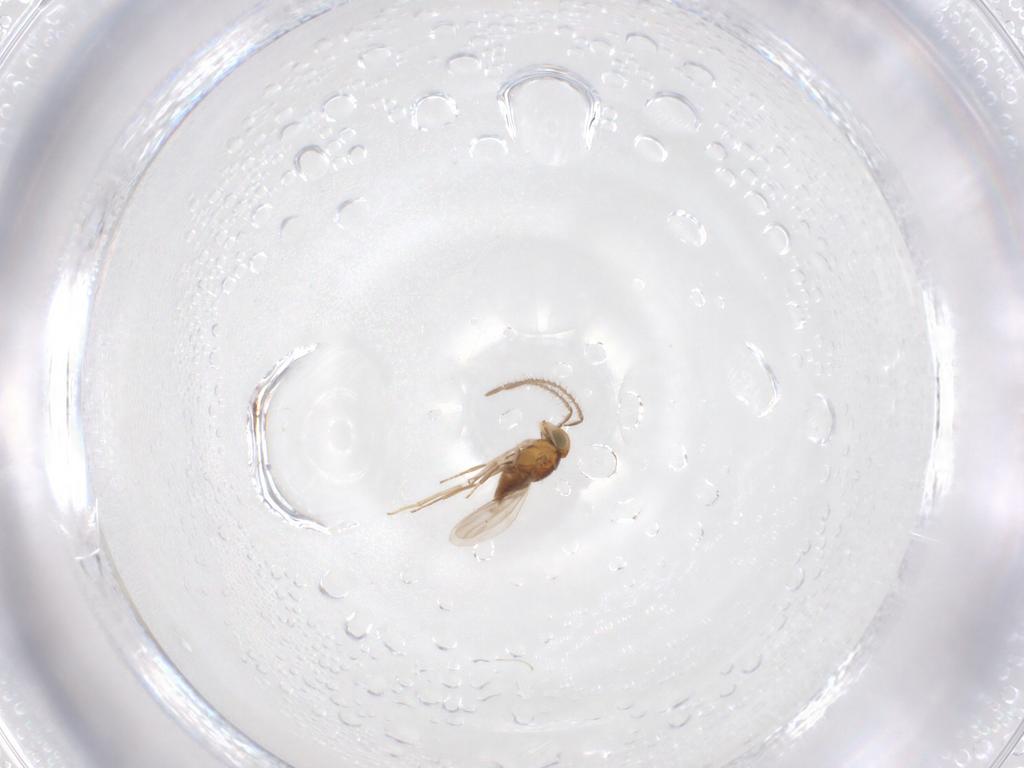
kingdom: Animalia
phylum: Arthropoda
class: Insecta
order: Hymenoptera
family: Encyrtidae
